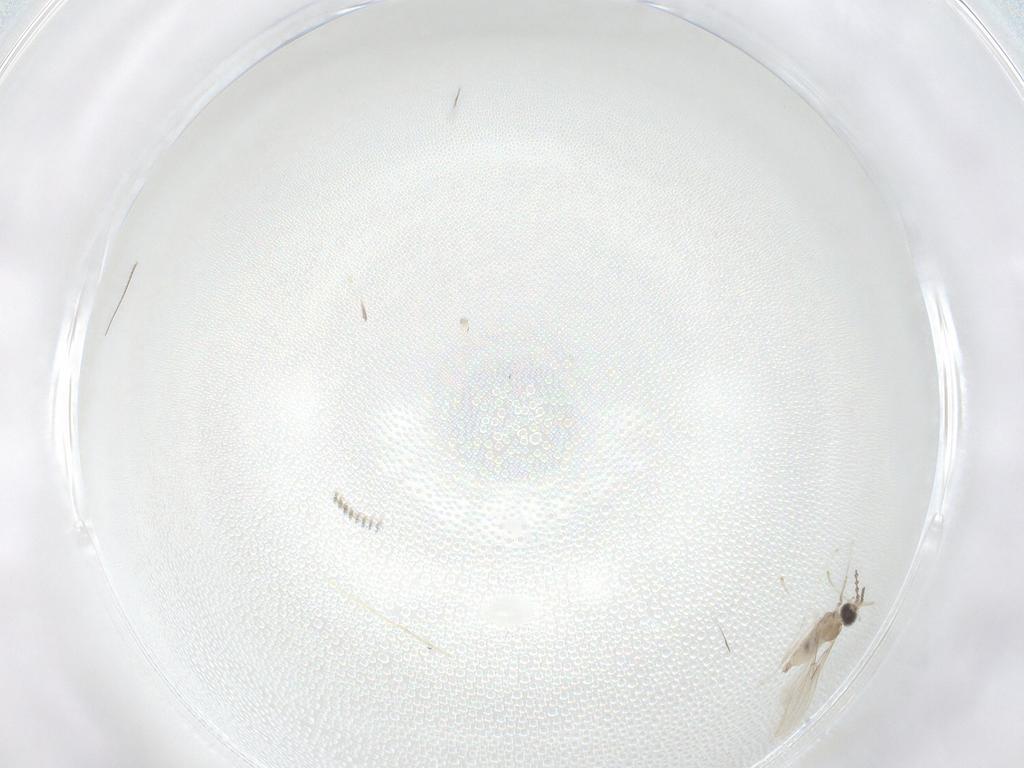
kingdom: Animalia
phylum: Arthropoda
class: Insecta
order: Diptera
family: Cecidomyiidae
